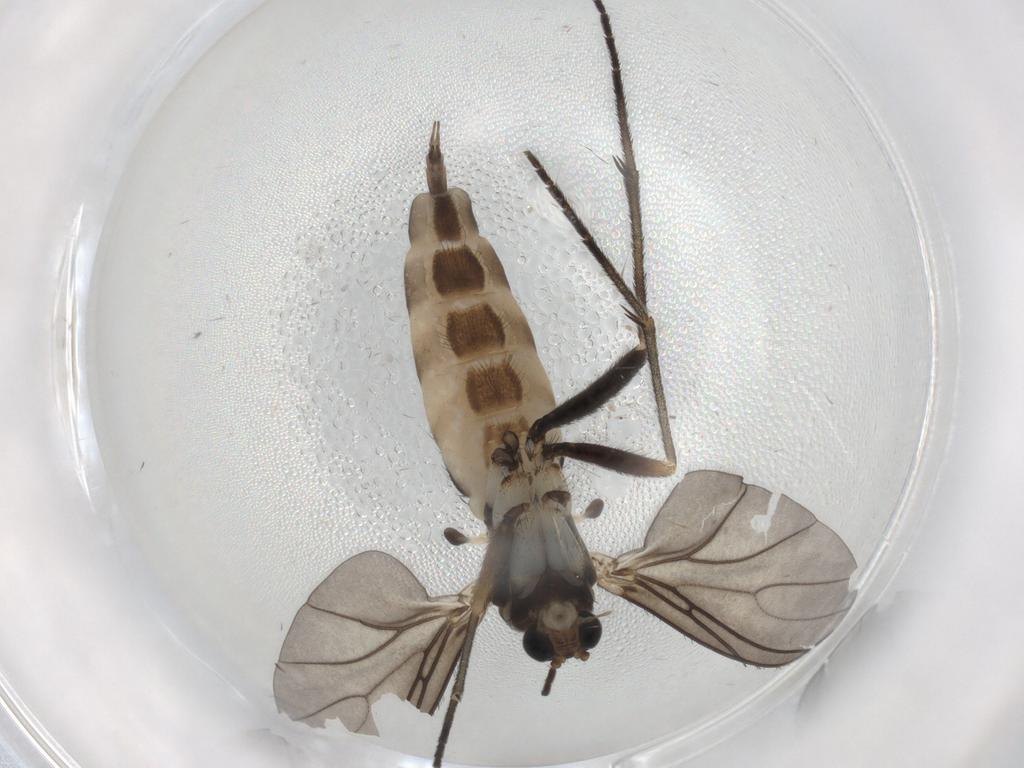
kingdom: Animalia
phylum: Arthropoda
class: Insecta
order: Diptera
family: Sciaridae
